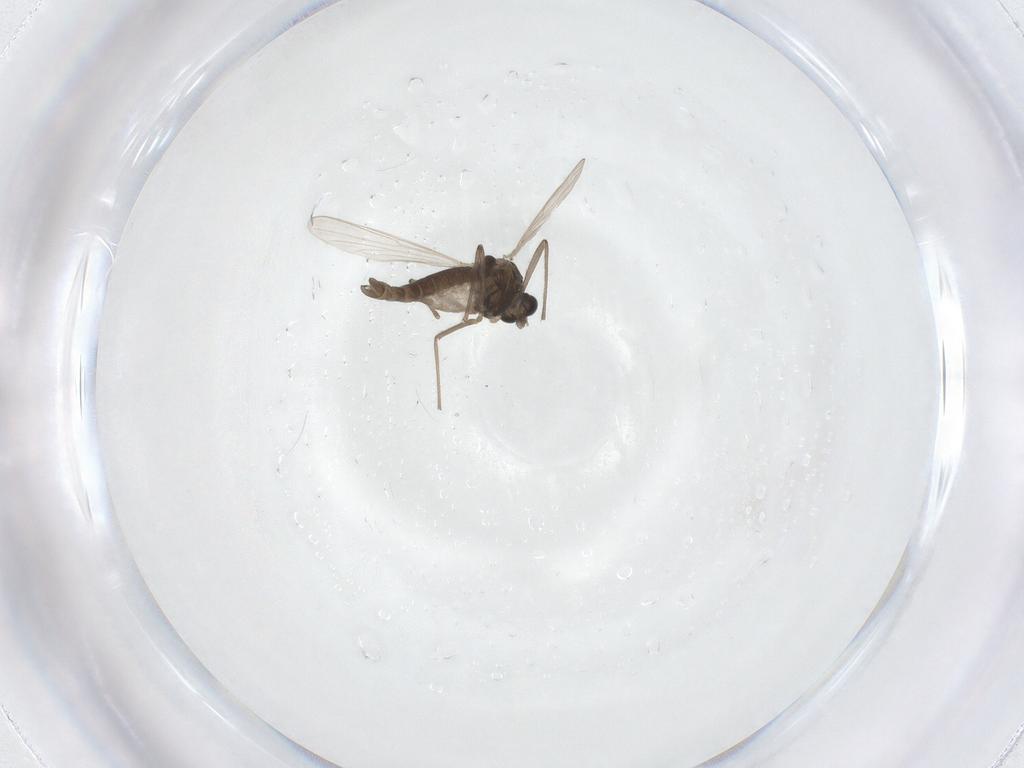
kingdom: Animalia
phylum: Arthropoda
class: Insecta
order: Diptera
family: Chironomidae
